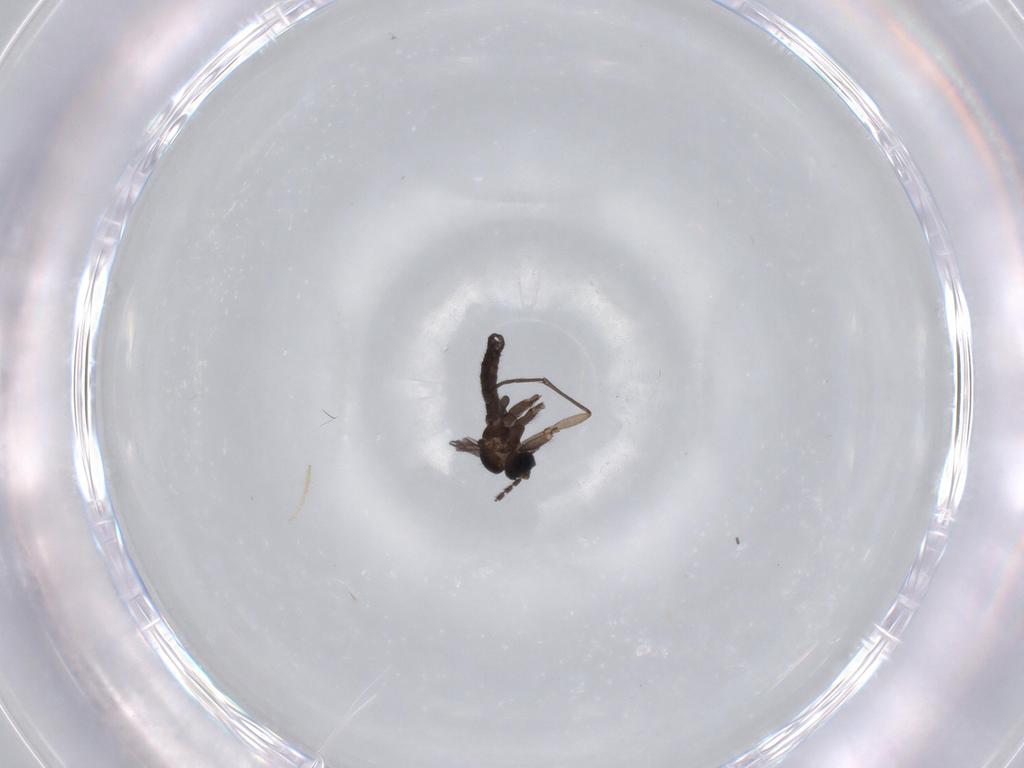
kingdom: Animalia
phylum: Arthropoda
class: Insecta
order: Diptera
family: Sciaridae
